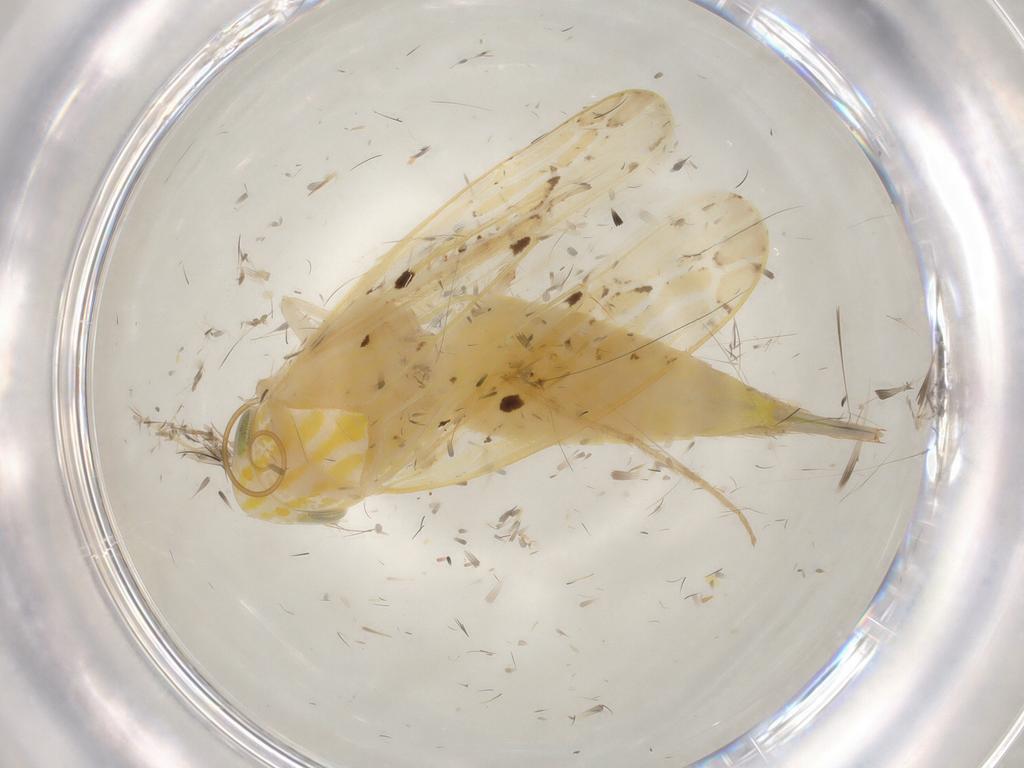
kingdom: Animalia
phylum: Arthropoda
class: Insecta
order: Hemiptera
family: Cicadellidae
